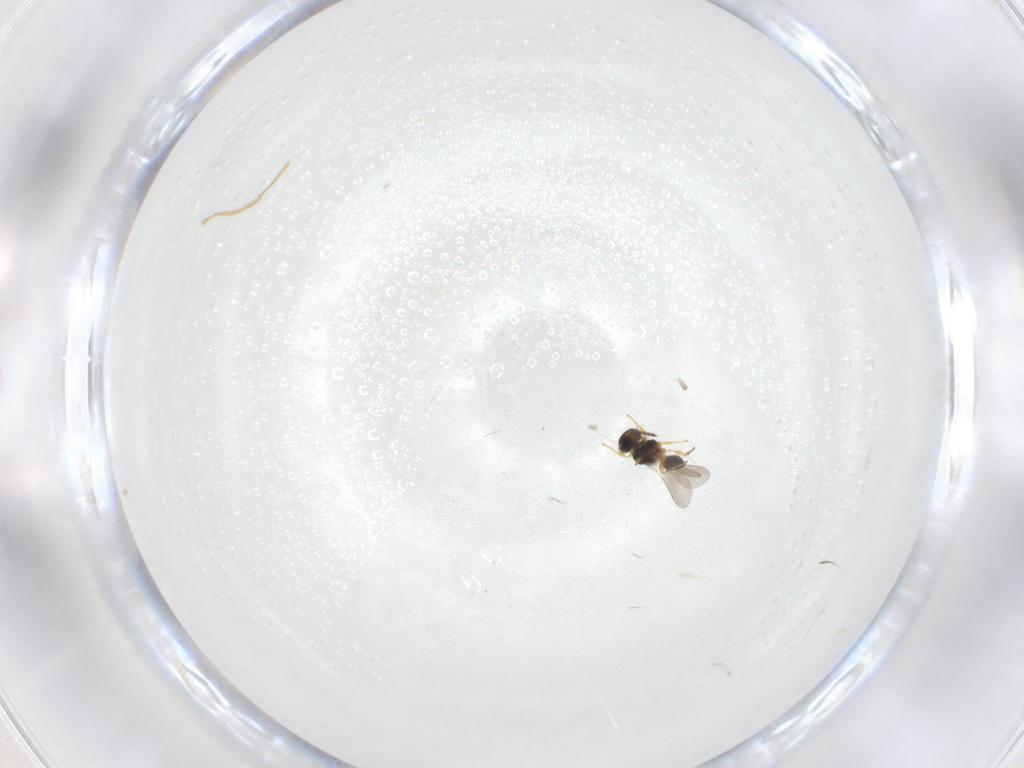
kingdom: Animalia
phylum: Arthropoda
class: Insecta
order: Hymenoptera
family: Platygastridae
